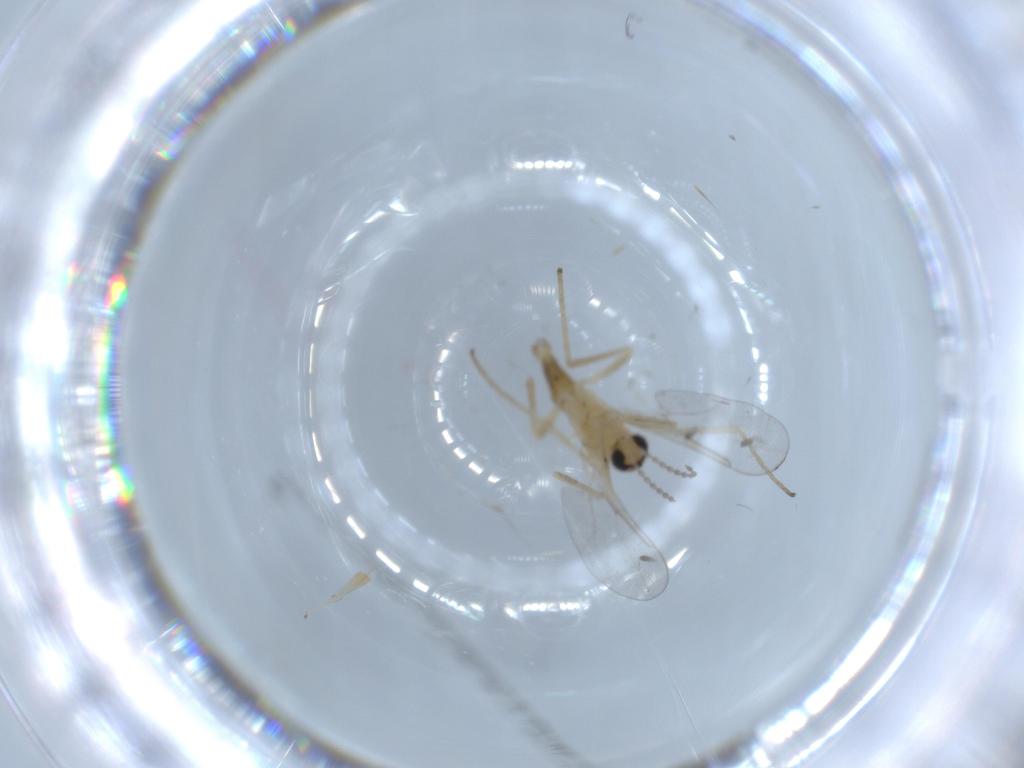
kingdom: Animalia
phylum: Arthropoda
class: Insecta
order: Diptera
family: Cecidomyiidae
